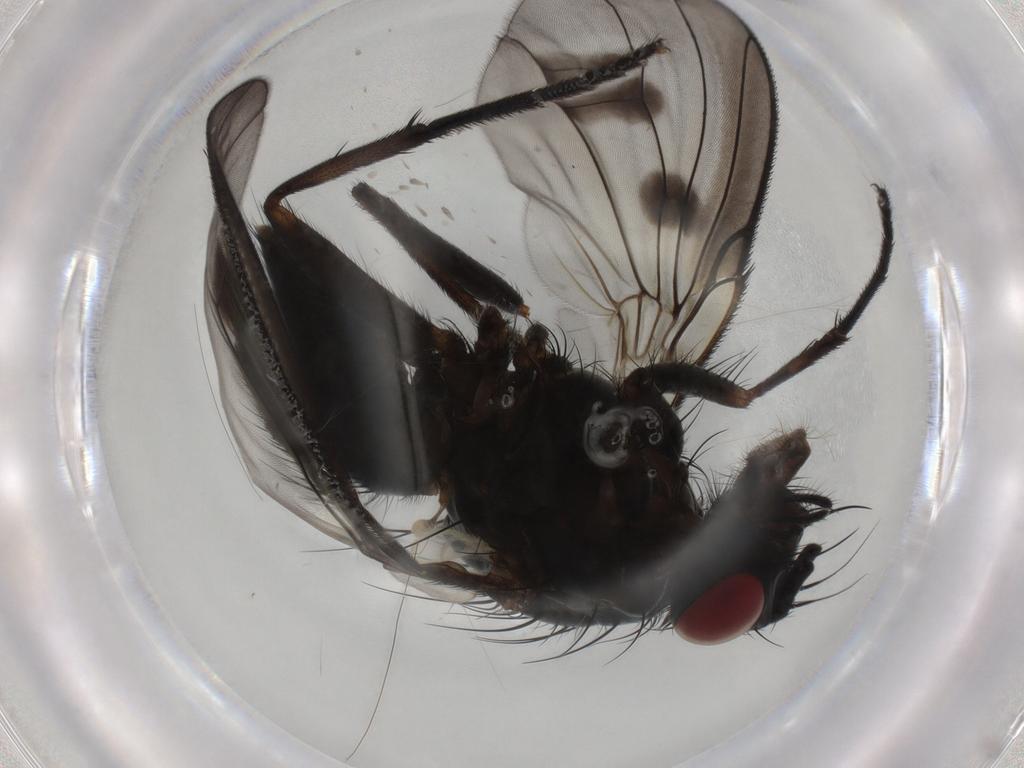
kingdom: Animalia
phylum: Arthropoda
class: Insecta
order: Diptera
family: Muscidae
